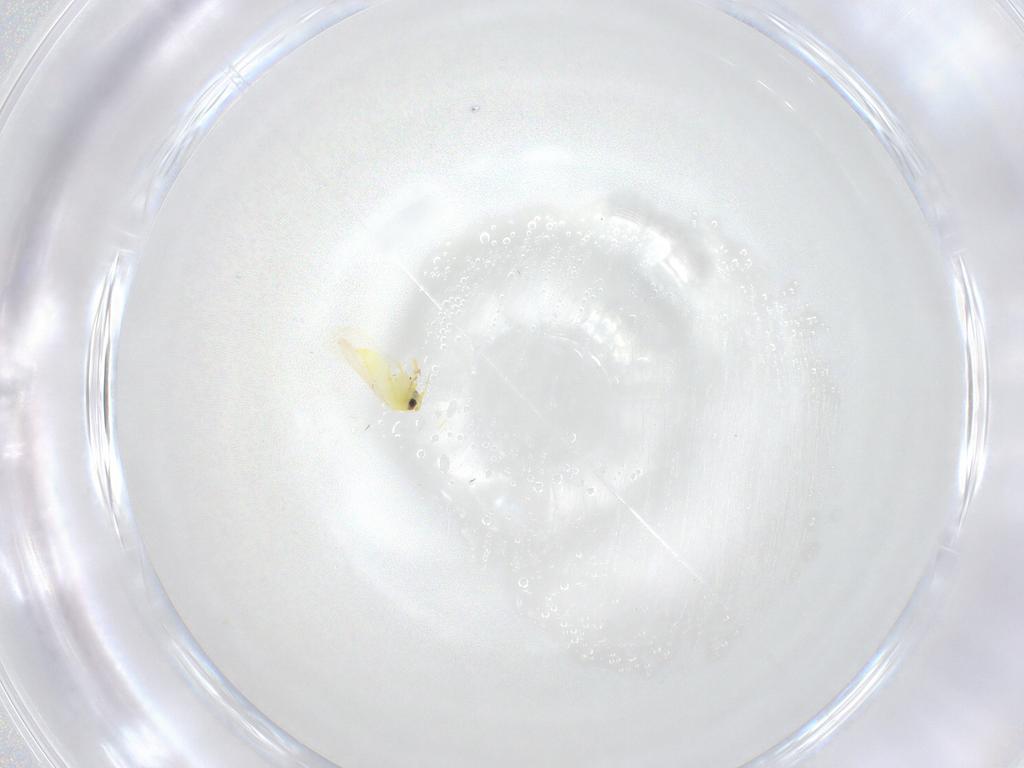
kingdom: Animalia
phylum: Arthropoda
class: Insecta
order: Hemiptera
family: Aleyrodidae
